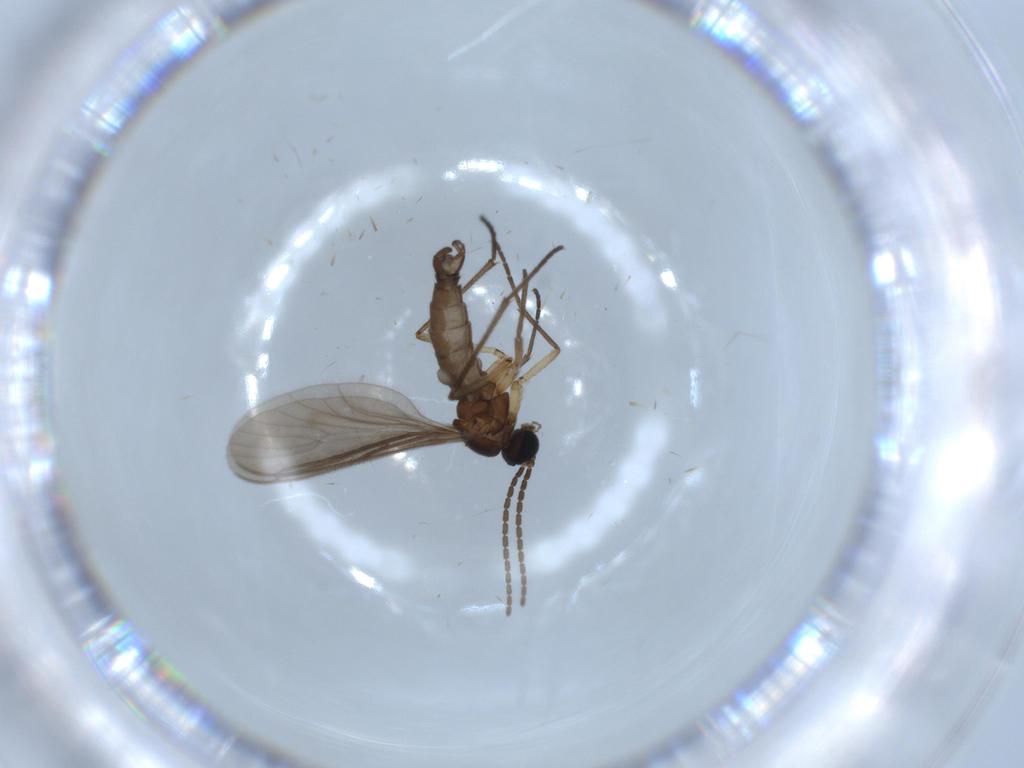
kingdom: Animalia
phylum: Arthropoda
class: Insecta
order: Diptera
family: Sciaridae
